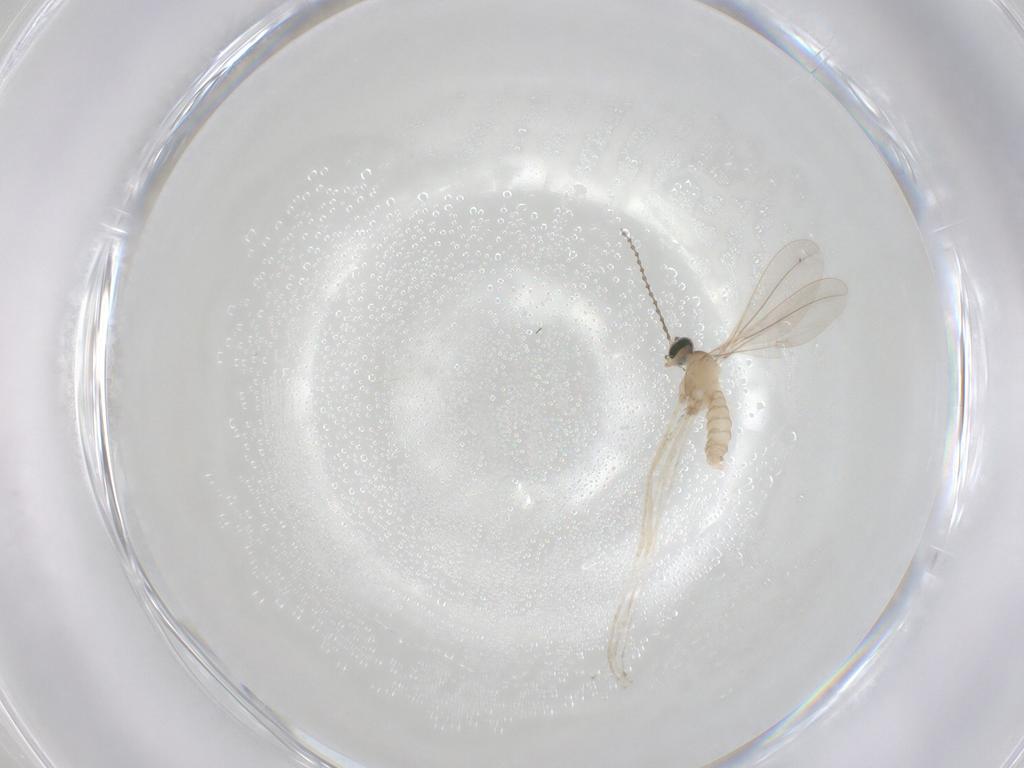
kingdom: Animalia
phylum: Arthropoda
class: Insecta
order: Diptera
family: Cecidomyiidae
